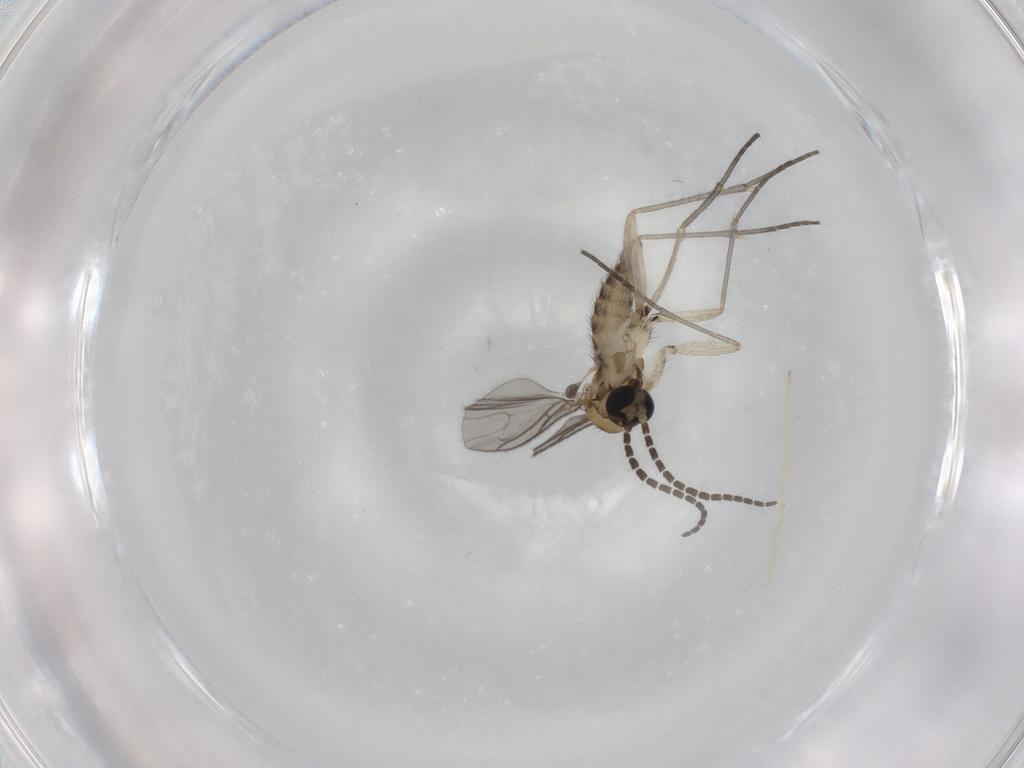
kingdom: Animalia
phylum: Arthropoda
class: Insecta
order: Diptera
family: Sciaridae
